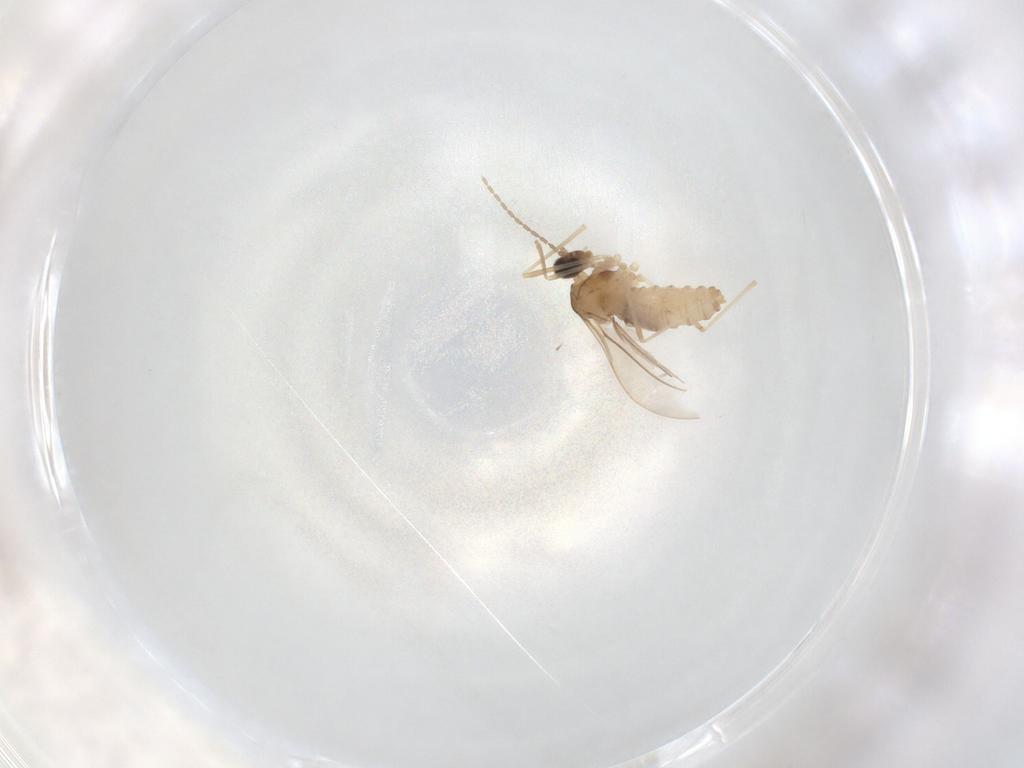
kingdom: Animalia
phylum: Arthropoda
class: Insecta
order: Diptera
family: Cecidomyiidae
